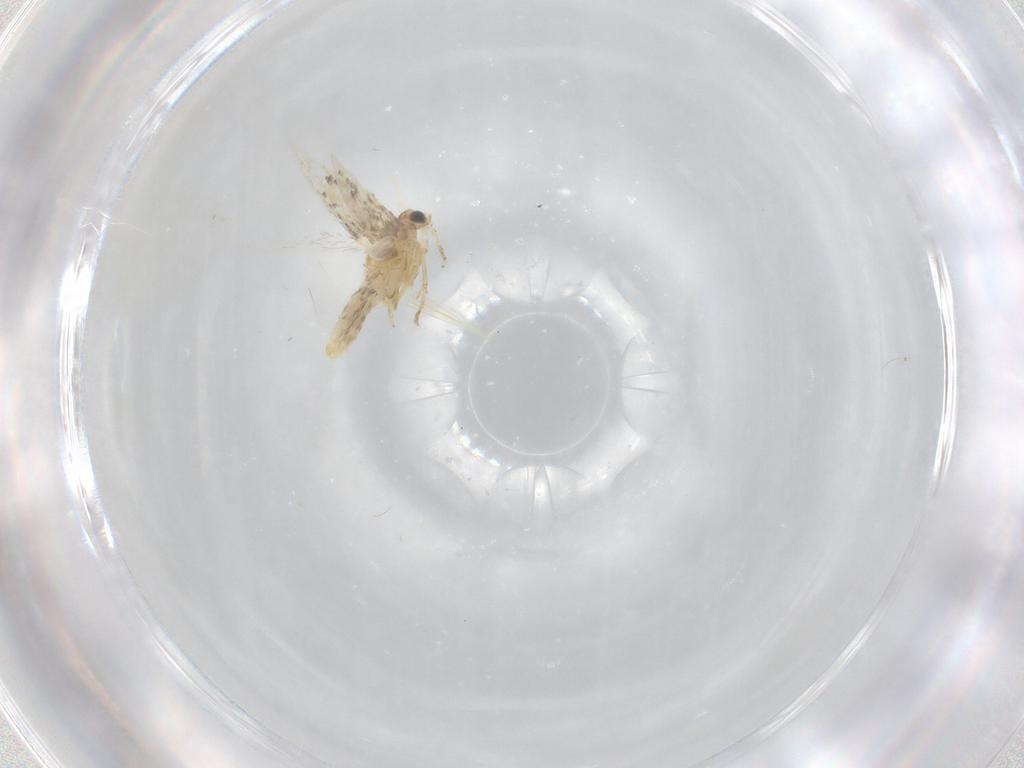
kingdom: Animalia
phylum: Arthropoda
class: Insecta
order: Lepidoptera
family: Nepticulidae
